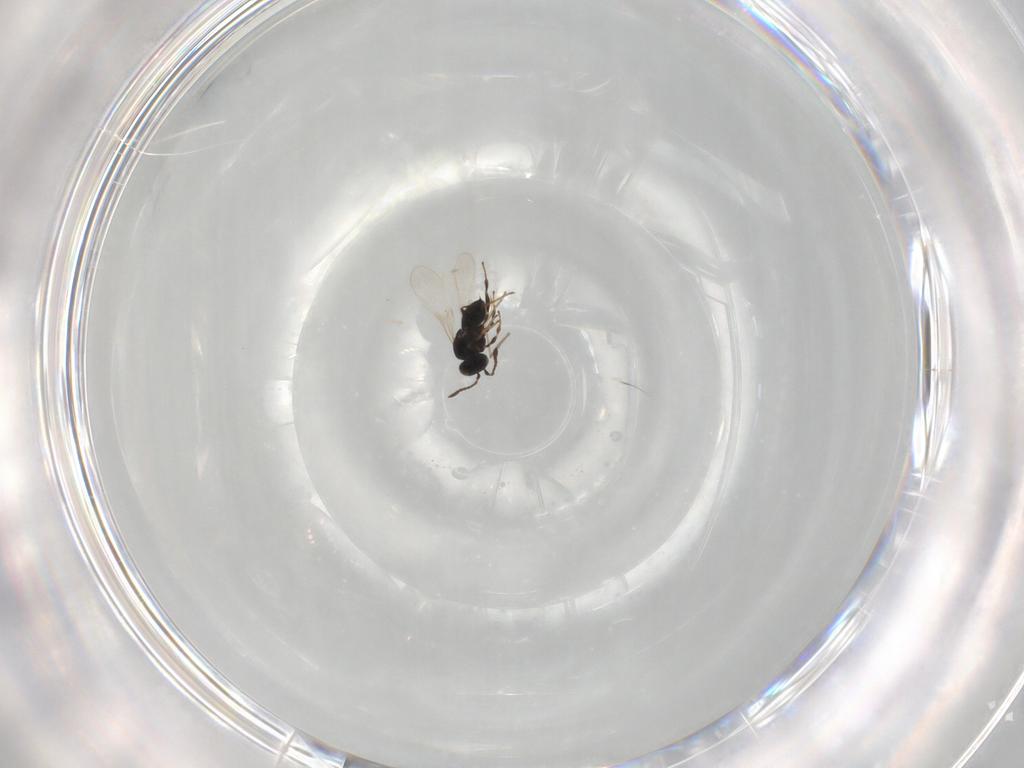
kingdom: Animalia
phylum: Arthropoda
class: Insecta
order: Hymenoptera
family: Platygastridae
